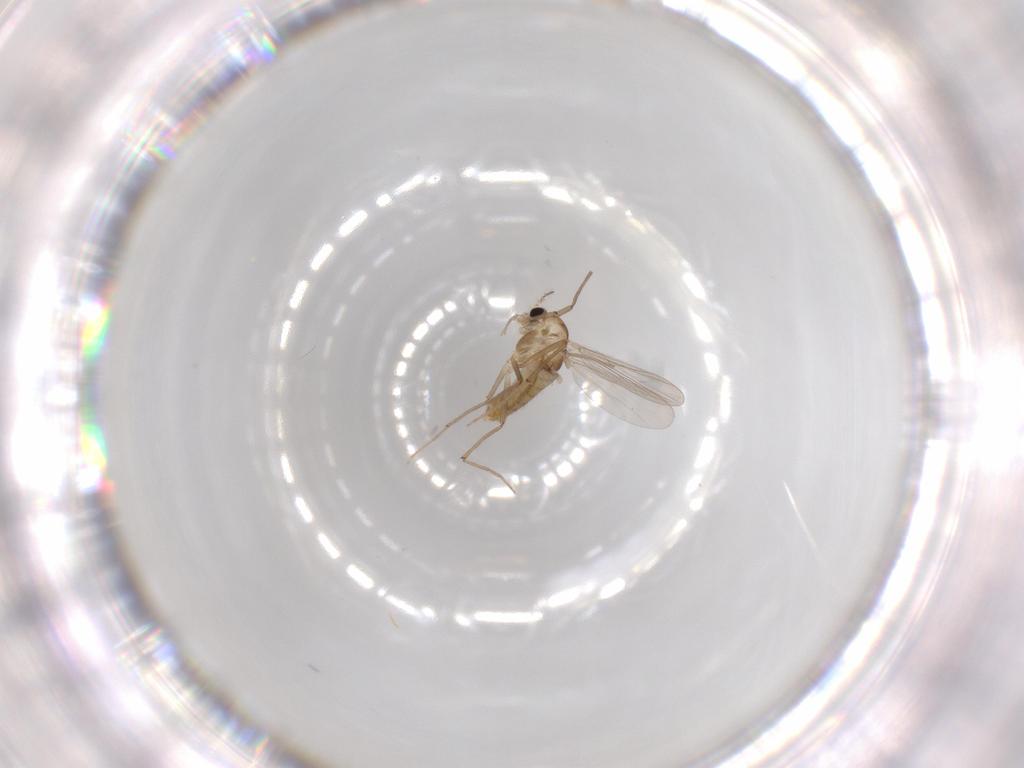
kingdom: Animalia
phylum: Arthropoda
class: Insecta
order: Diptera
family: Chironomidae
